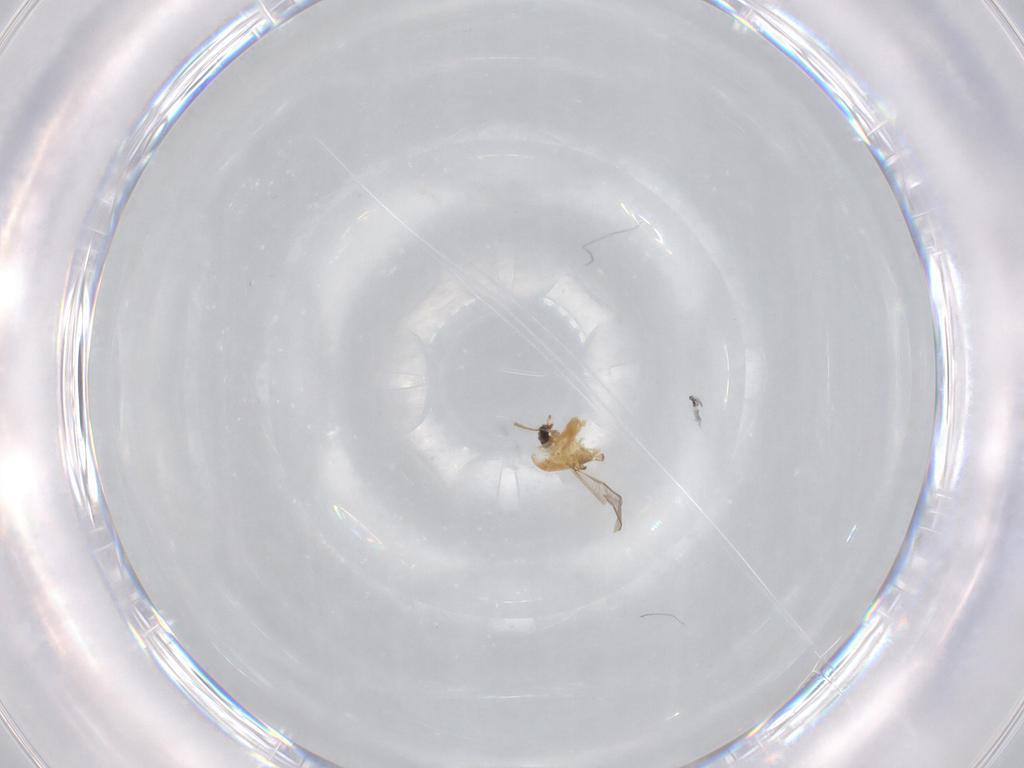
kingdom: Animalia
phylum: Arthropoda
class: Insecta
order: Diptera
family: Chironomidae
